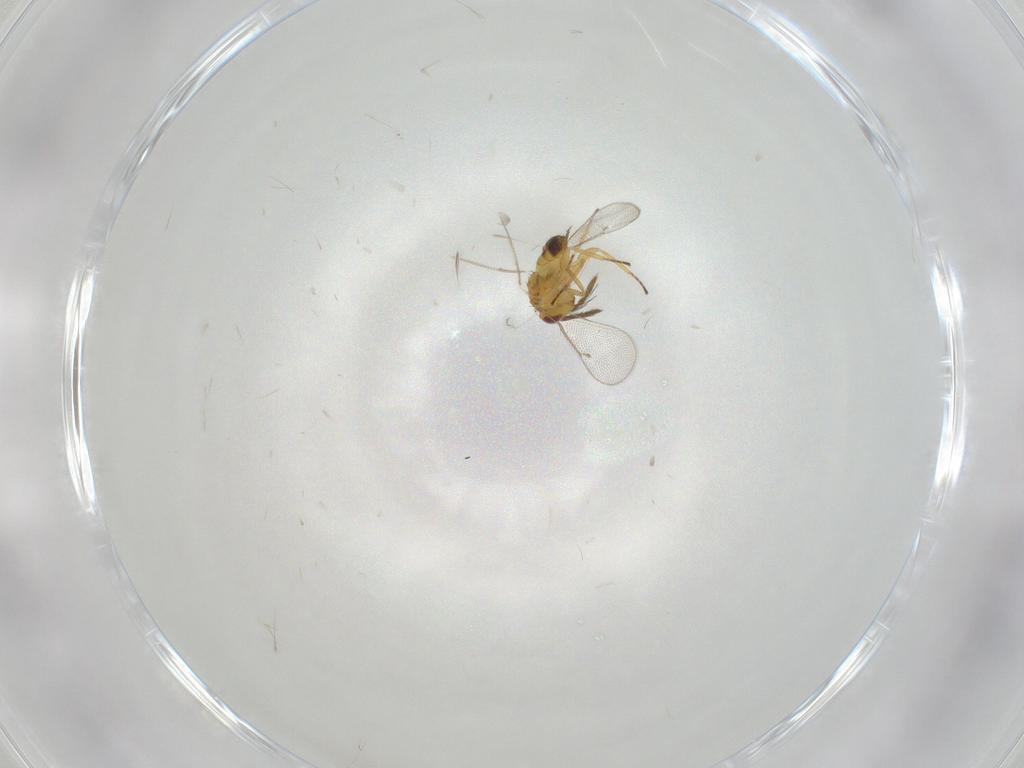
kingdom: Animalia
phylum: Arthropoda
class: Insecta
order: Hymenoptera
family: Eulophidae
